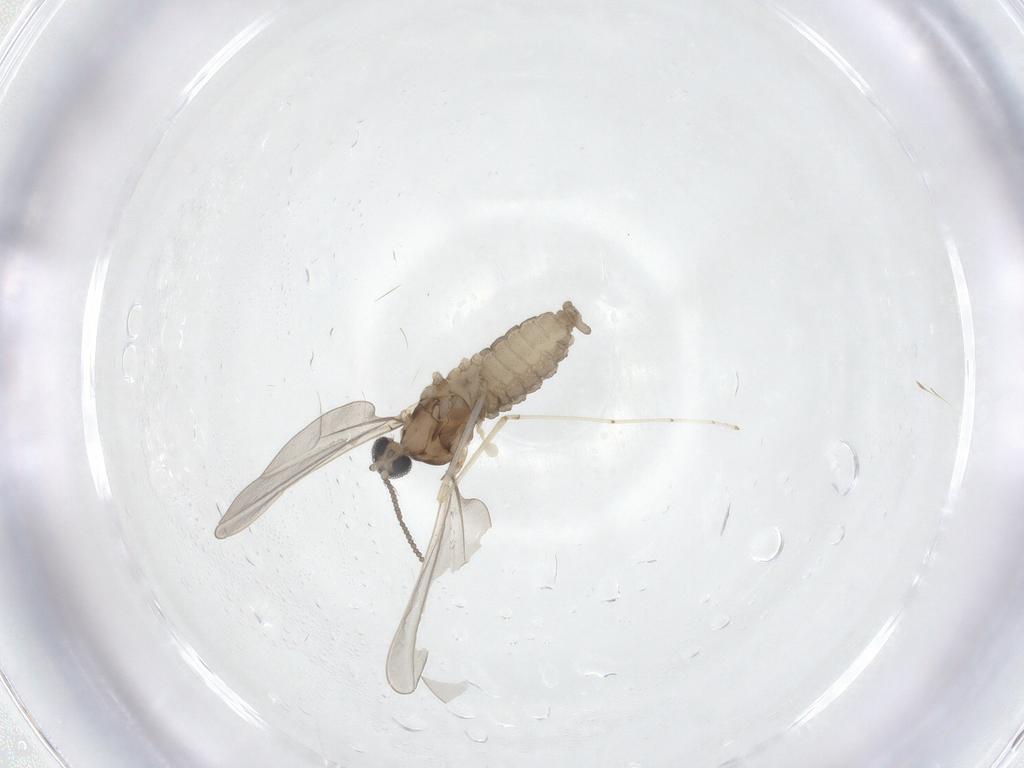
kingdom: Animalia
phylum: Arthropoda
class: Insecta
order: Diptera
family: Cecidomyiidae
